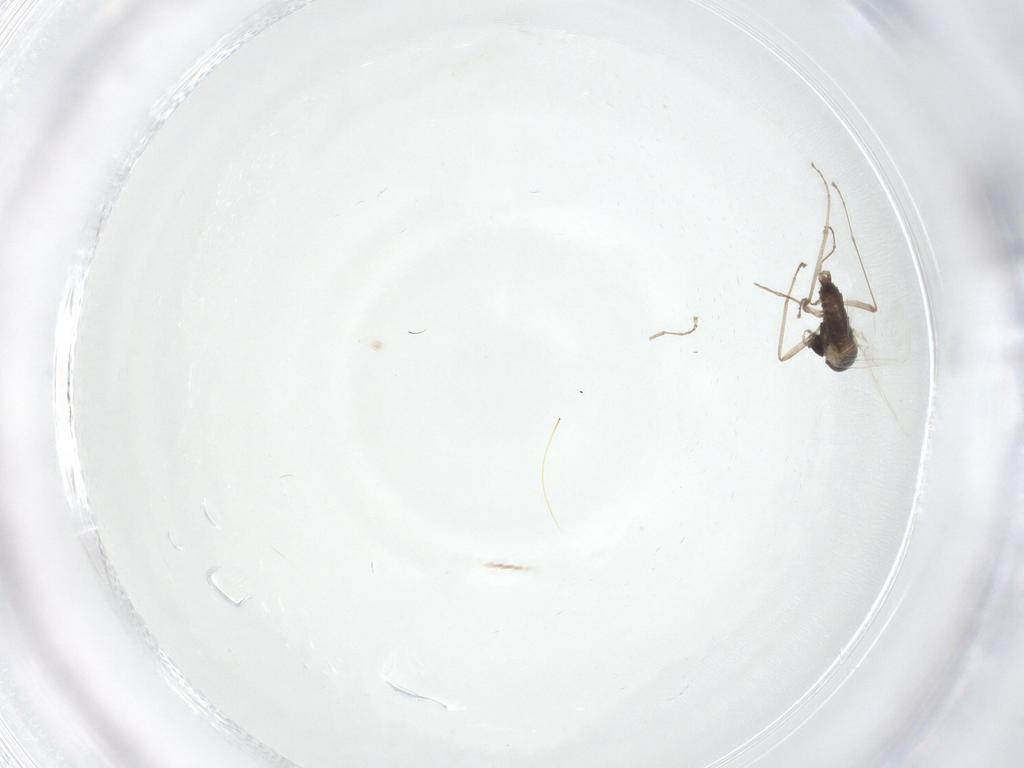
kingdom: Animalia
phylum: Arthropoda
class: Insecta
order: Diptera
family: Cecidomyiidae
